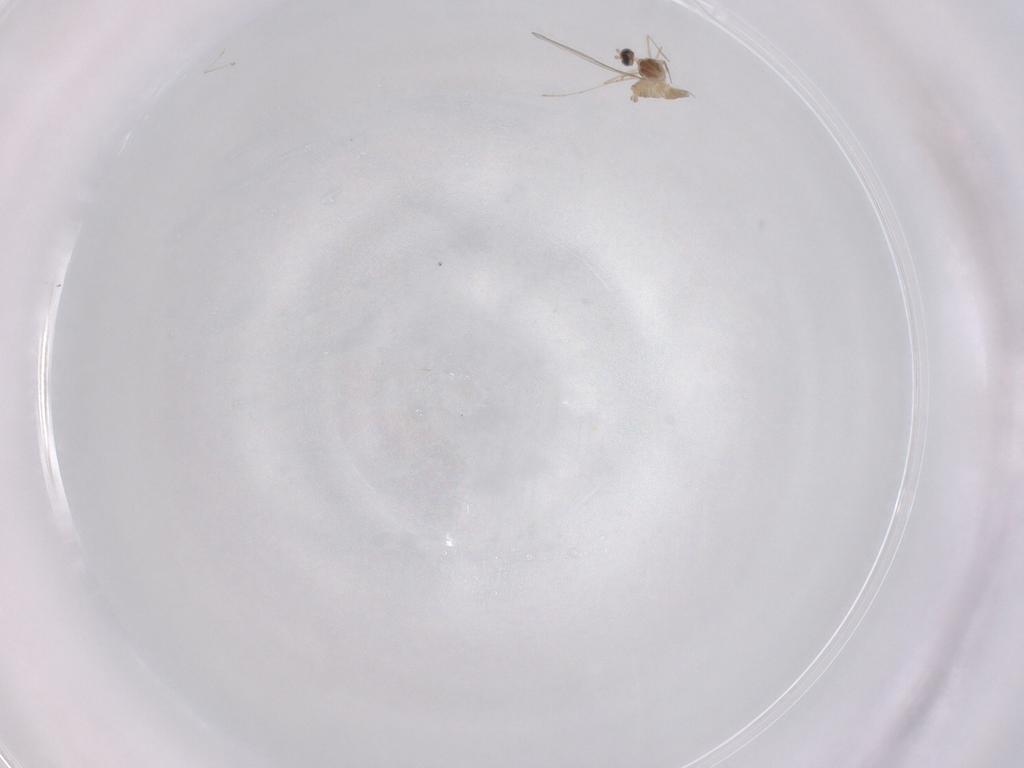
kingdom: Animalia
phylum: Arthropoda
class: Insecta
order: Diptera
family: Cecidomyiidae
